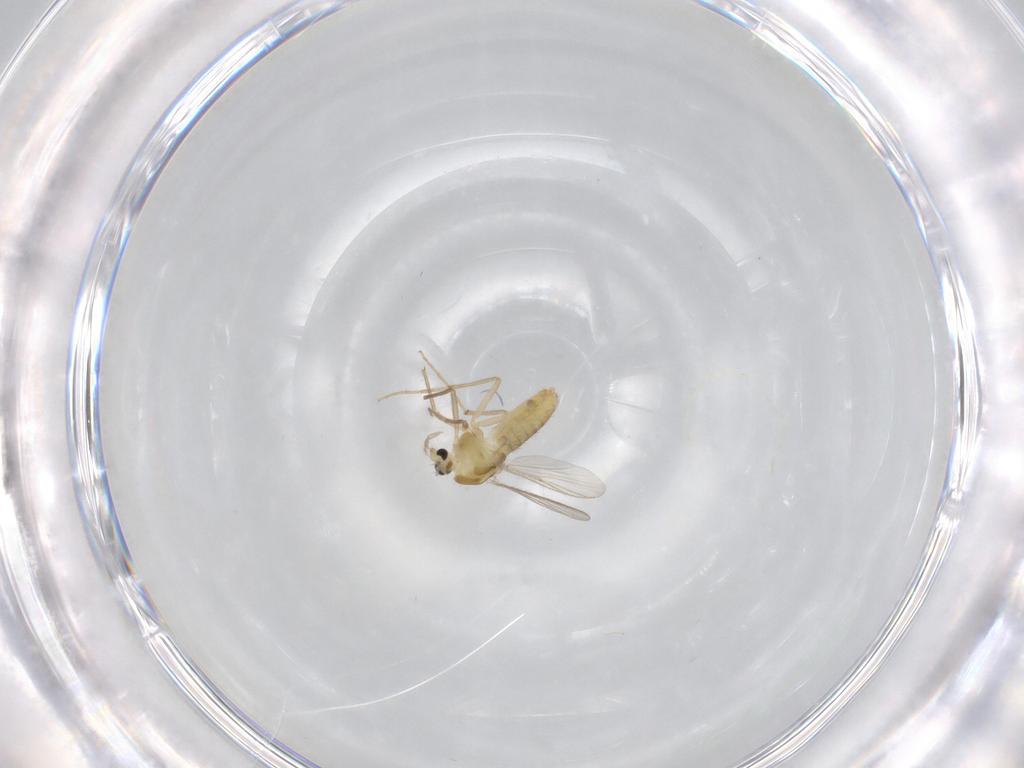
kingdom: Animalia
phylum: Arthropoda
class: Insecta
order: Diptera
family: Chironomidae
